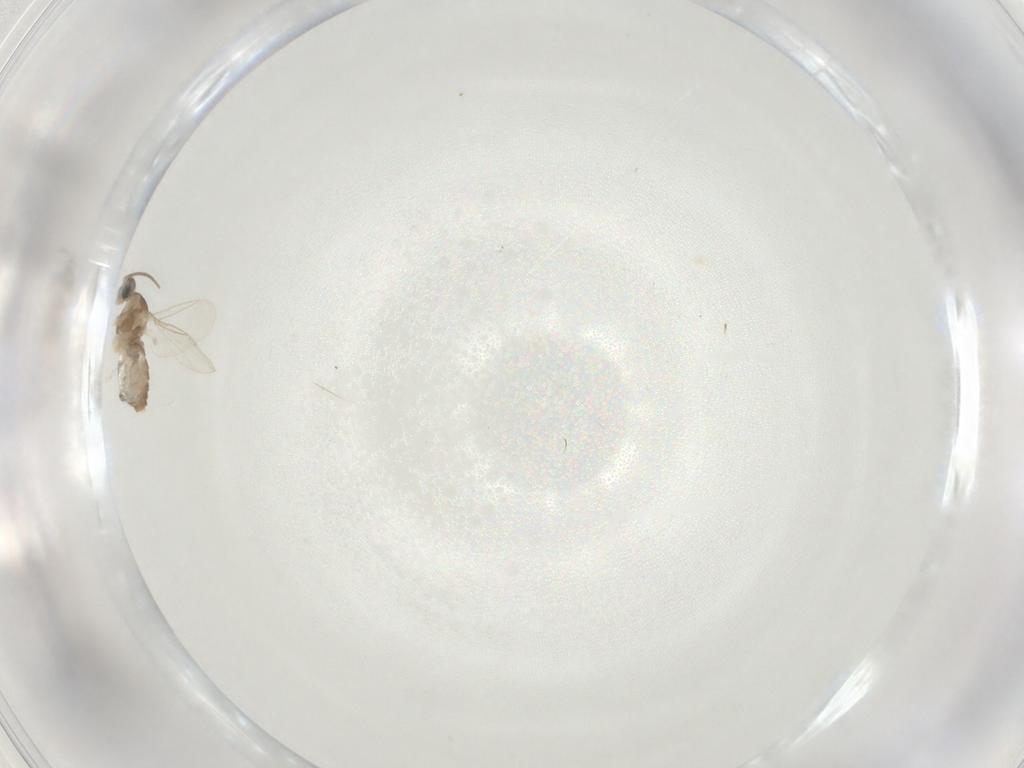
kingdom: Animalia
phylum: Arthropoda
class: Insecta
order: Diptera
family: Cecidomyiidae
